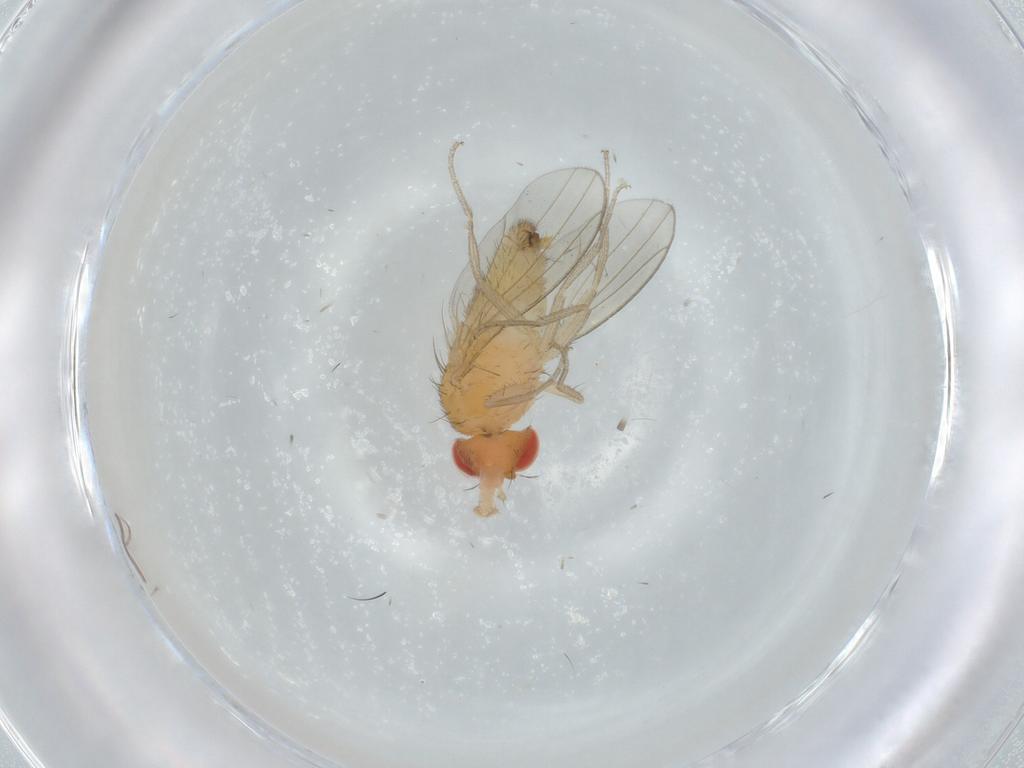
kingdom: Animalia
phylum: Arthropoda
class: Insecta
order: Diptera
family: Drosophilidae
